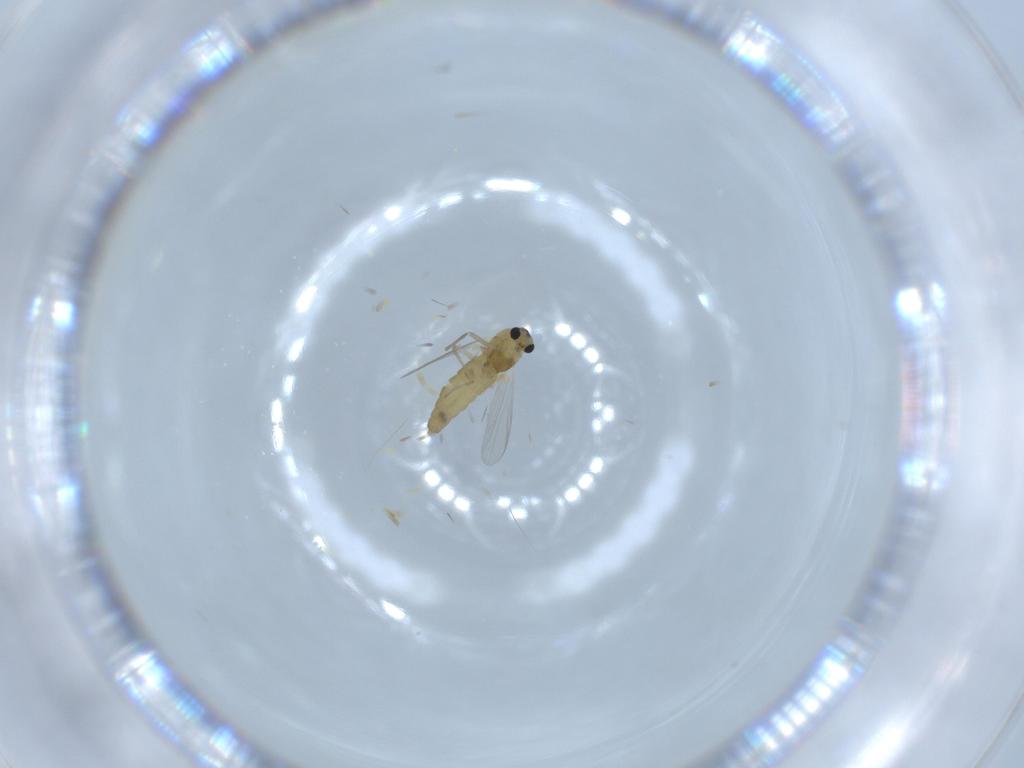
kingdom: Animalia
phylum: Arthropoda
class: Insecta
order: Diptera
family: Chironomidae
